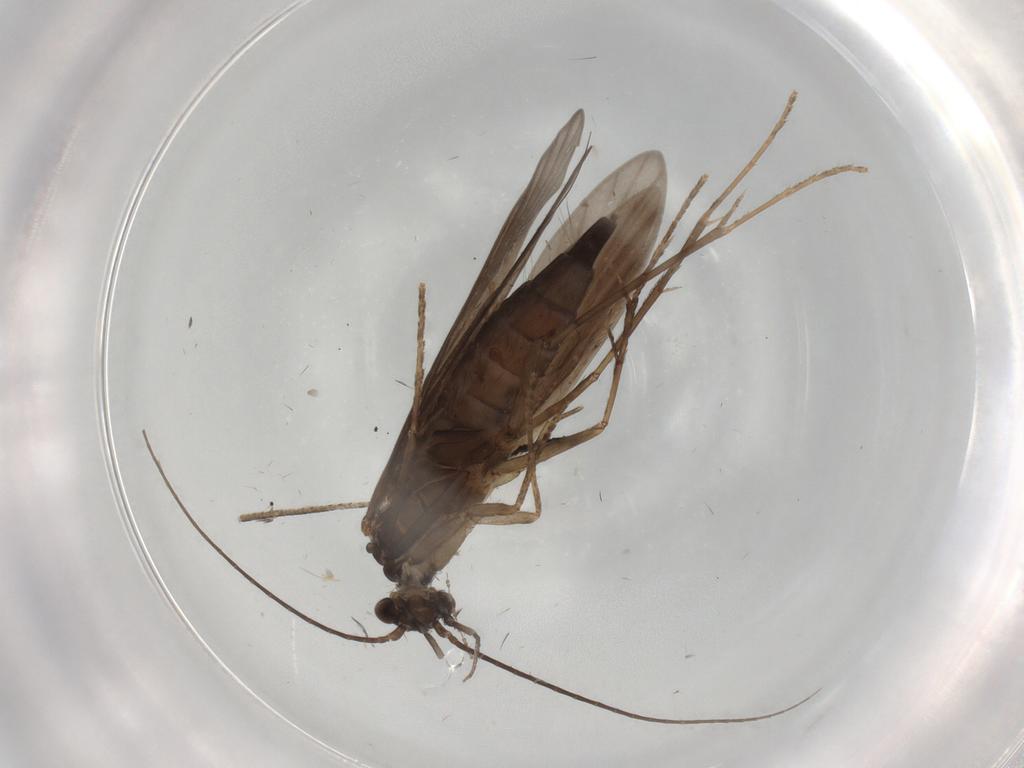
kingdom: Animalia
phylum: Arthropoda
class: Insecta
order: Trichoptera
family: Xiphocentronidae
